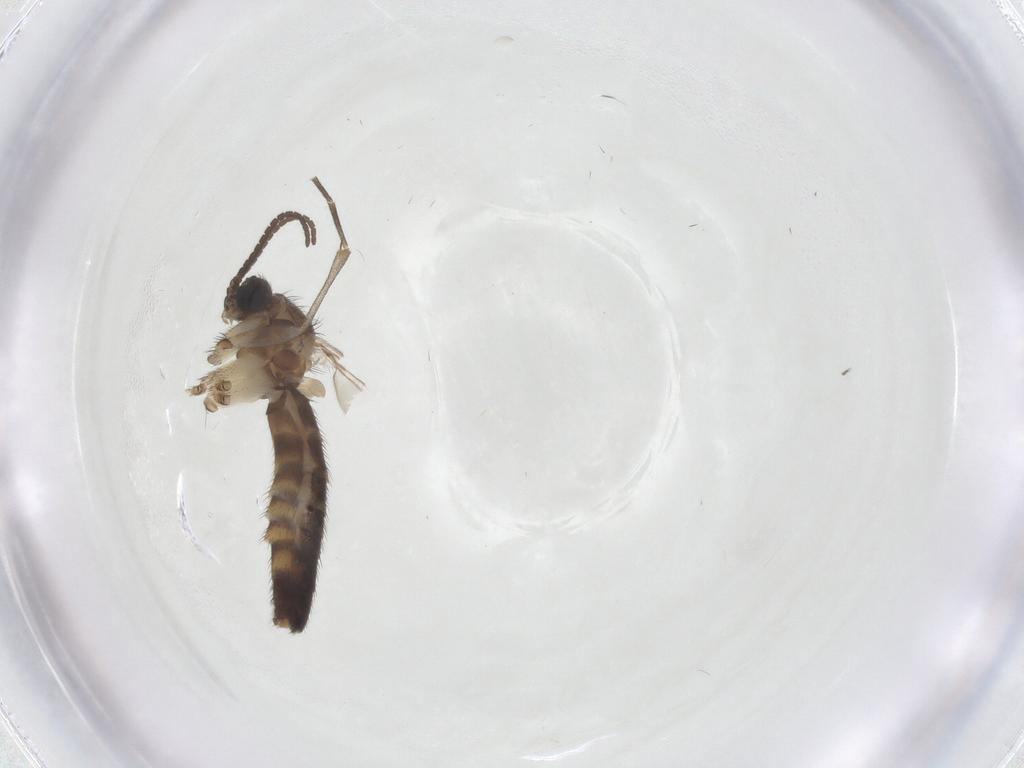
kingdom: Animalia
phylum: Arthropoda
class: Insecta
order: Diptera
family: Keroplatidae
